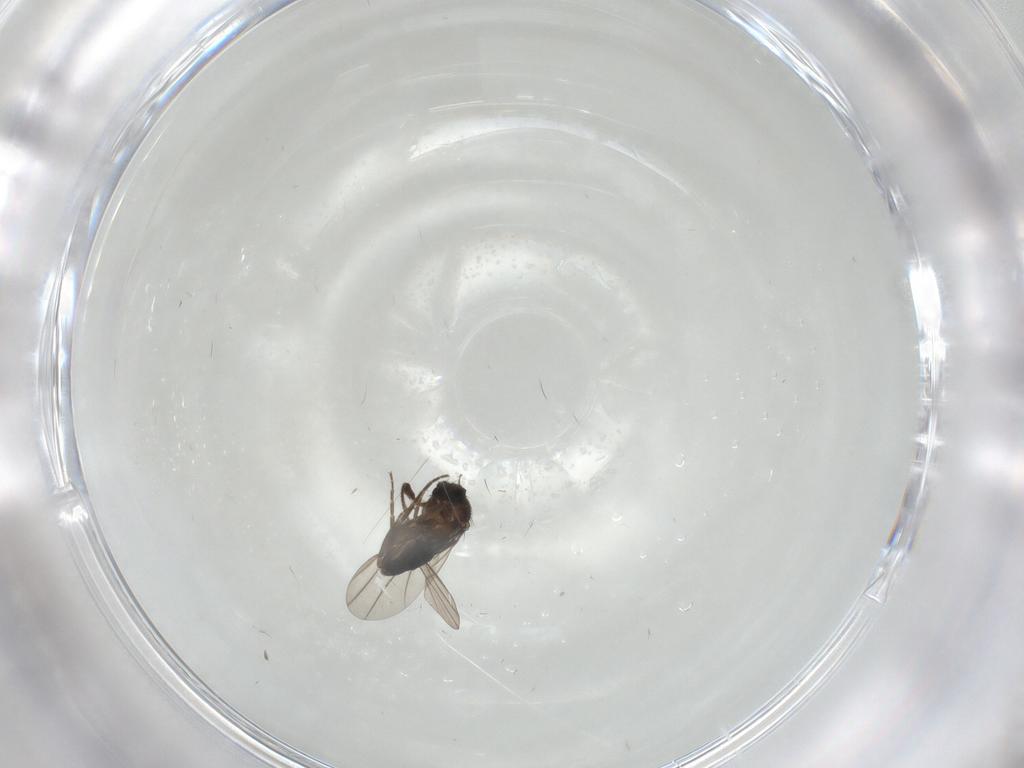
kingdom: Animalia
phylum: Arthropoda
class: Insecta
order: Diptera
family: Phoridae
